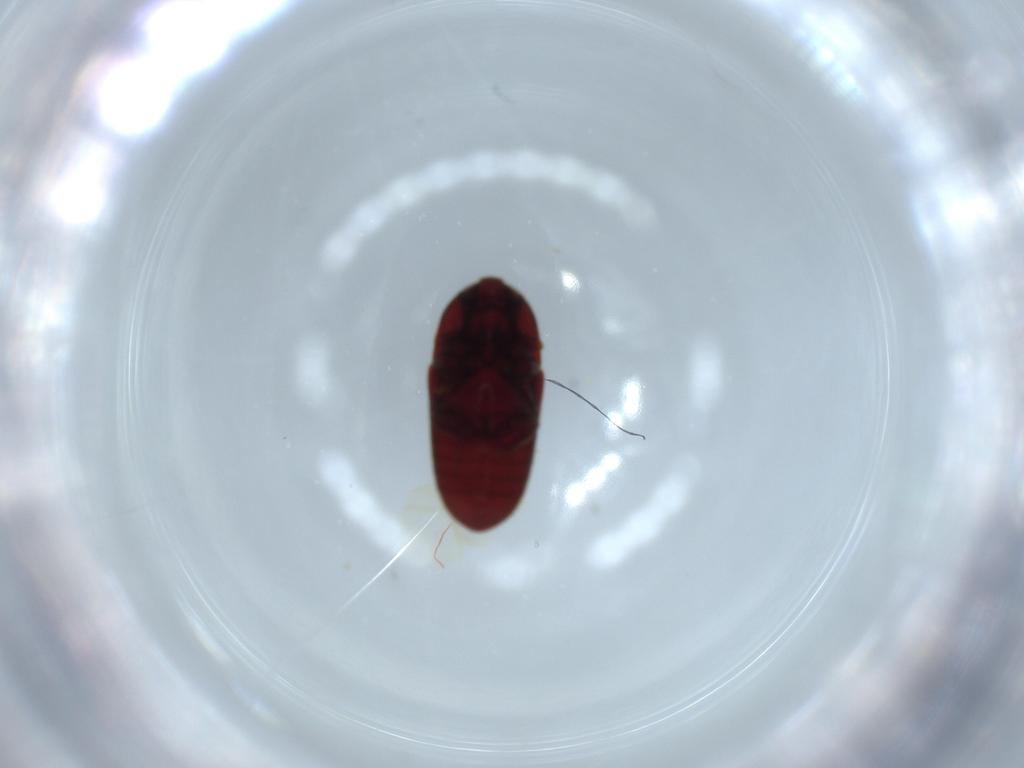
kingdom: Animalia
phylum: Arthropoda
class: Insecta
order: Coleoptera
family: Throscidae
